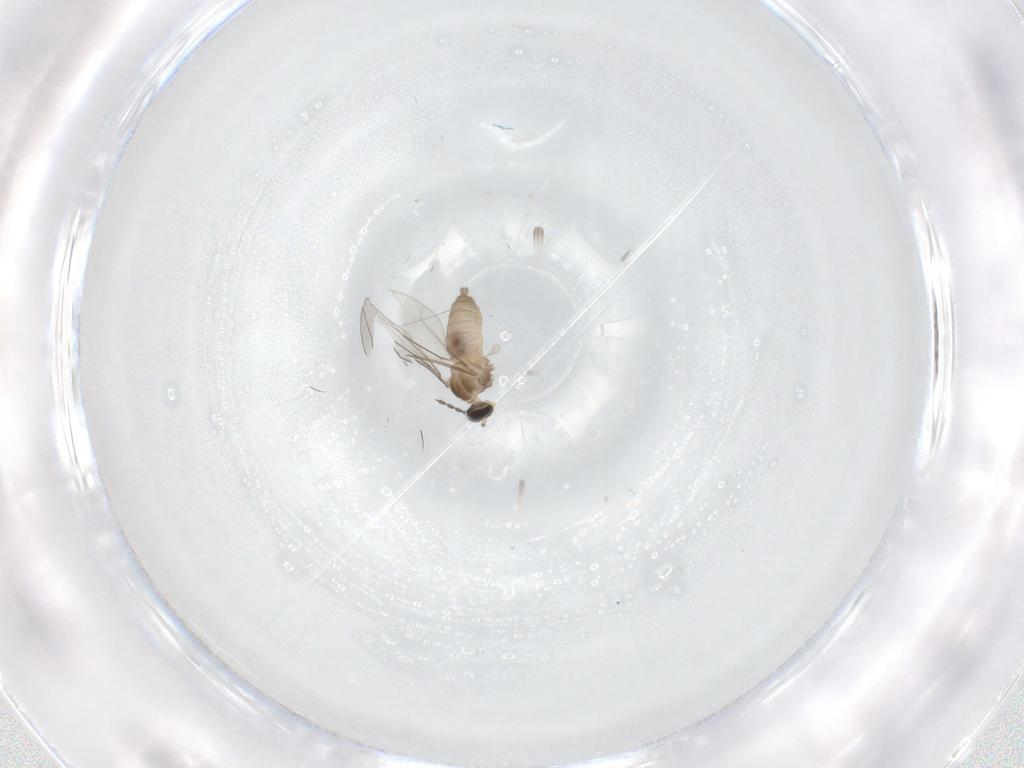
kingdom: Animalia
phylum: Arthropoda
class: Insecta
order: Diptera
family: Cecidomyiidae
